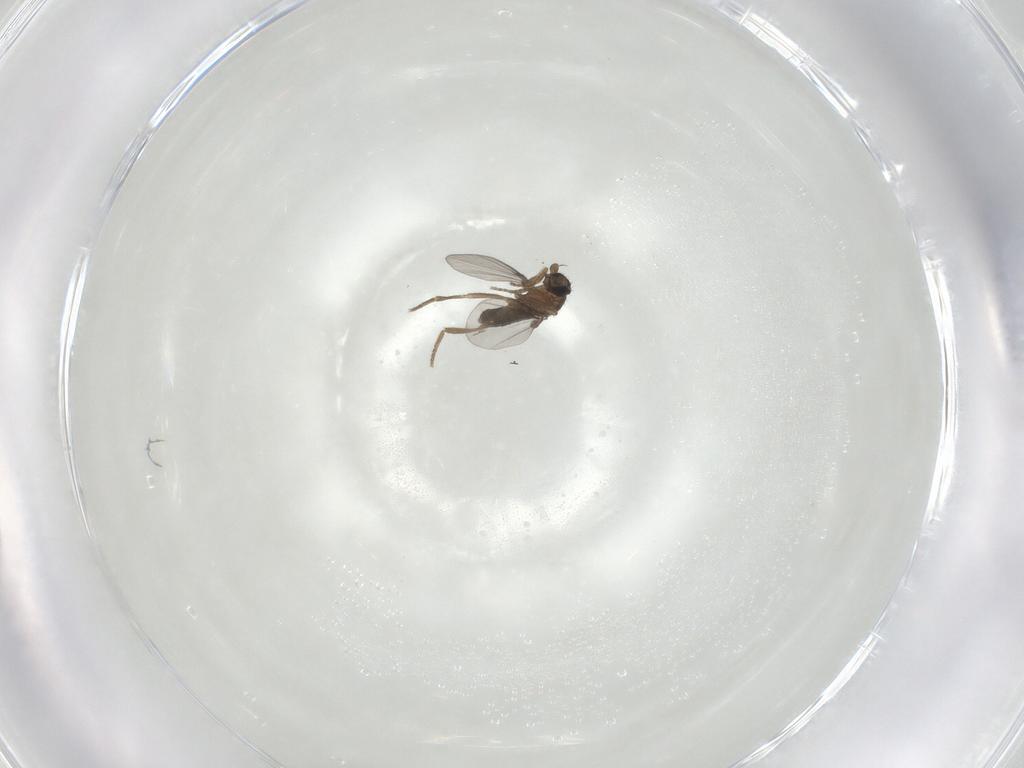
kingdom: Animalia
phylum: Arthropoda
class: Insecta
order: Diptera
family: Phoridae
